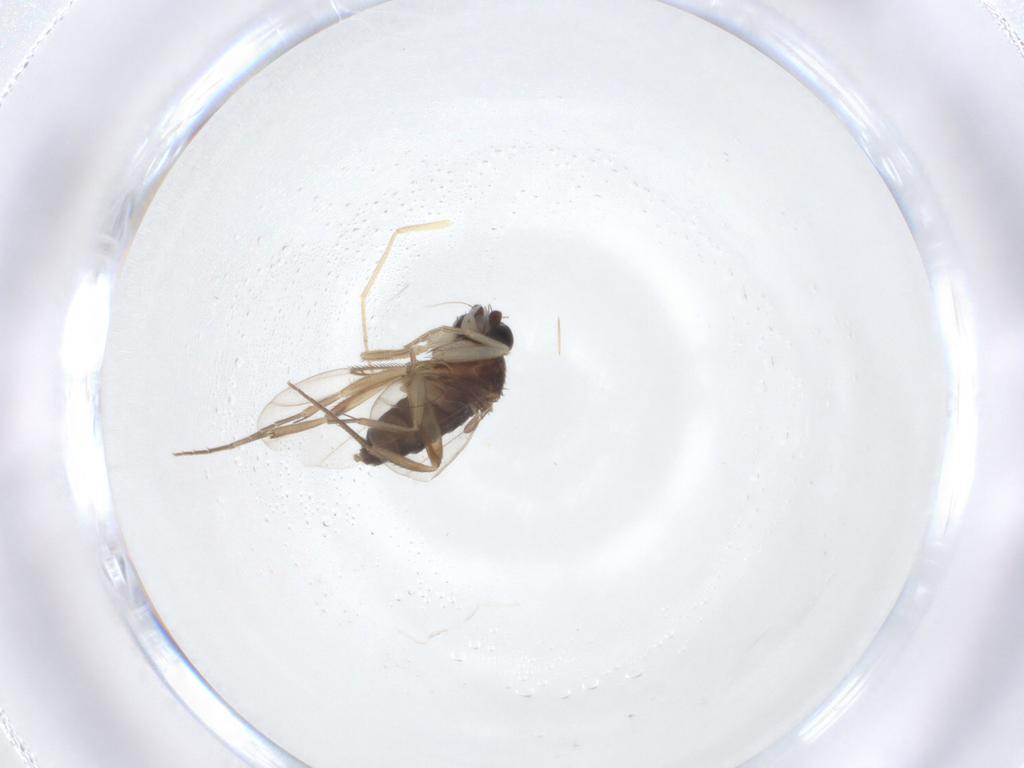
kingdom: Animalia
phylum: Arthropoda
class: Insecta
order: Diptera
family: Phoridae
